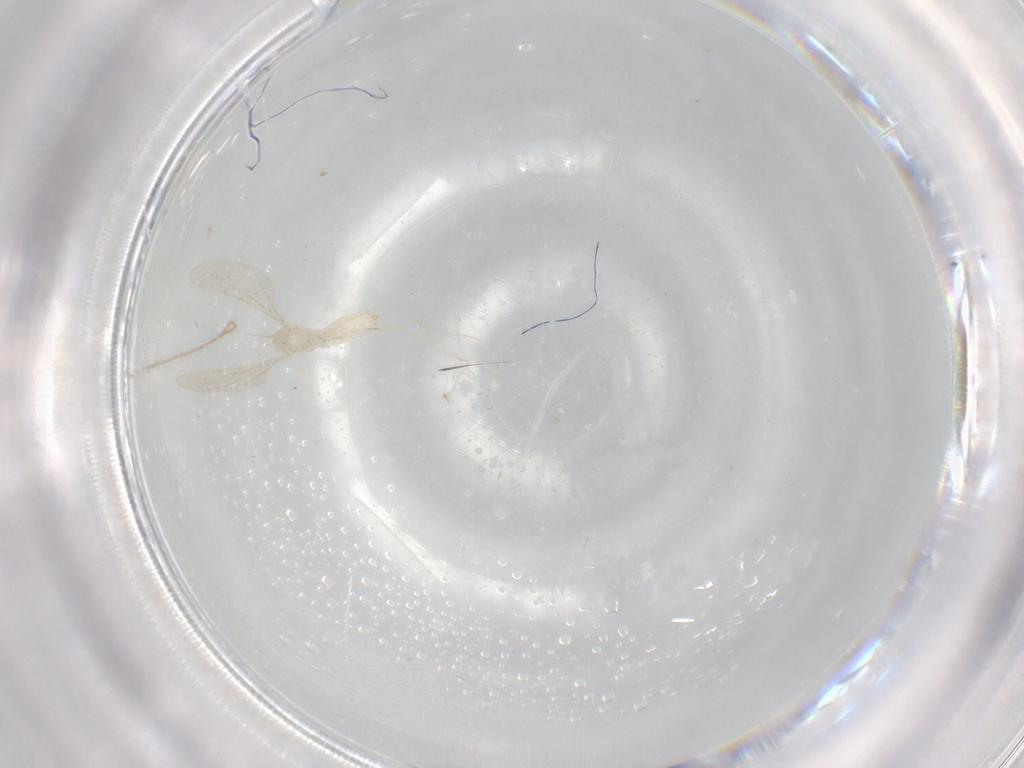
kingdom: Animalia
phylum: Arthropoda
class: Insecta
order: Diptera
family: Cecidomyiidae
